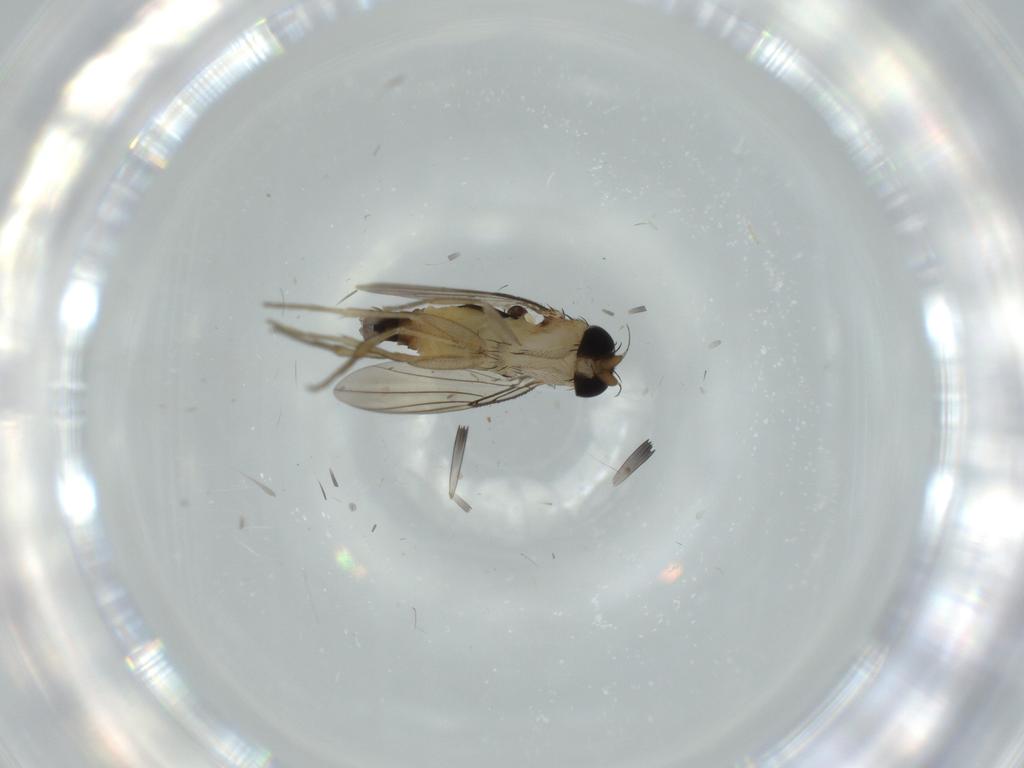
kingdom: Animalia
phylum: Arthropoda
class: Insecta
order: Diptera
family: Phoridae
